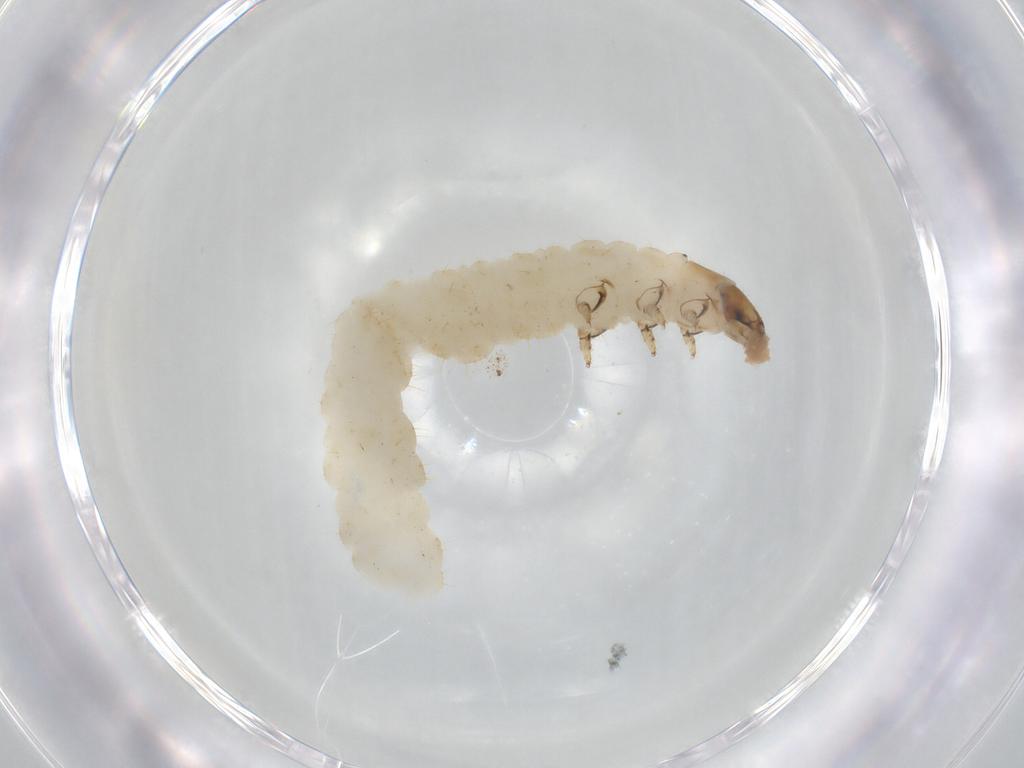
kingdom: Animalia
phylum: Arthropoda
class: Insecta
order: Coleoptera
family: Chrysomelidae
